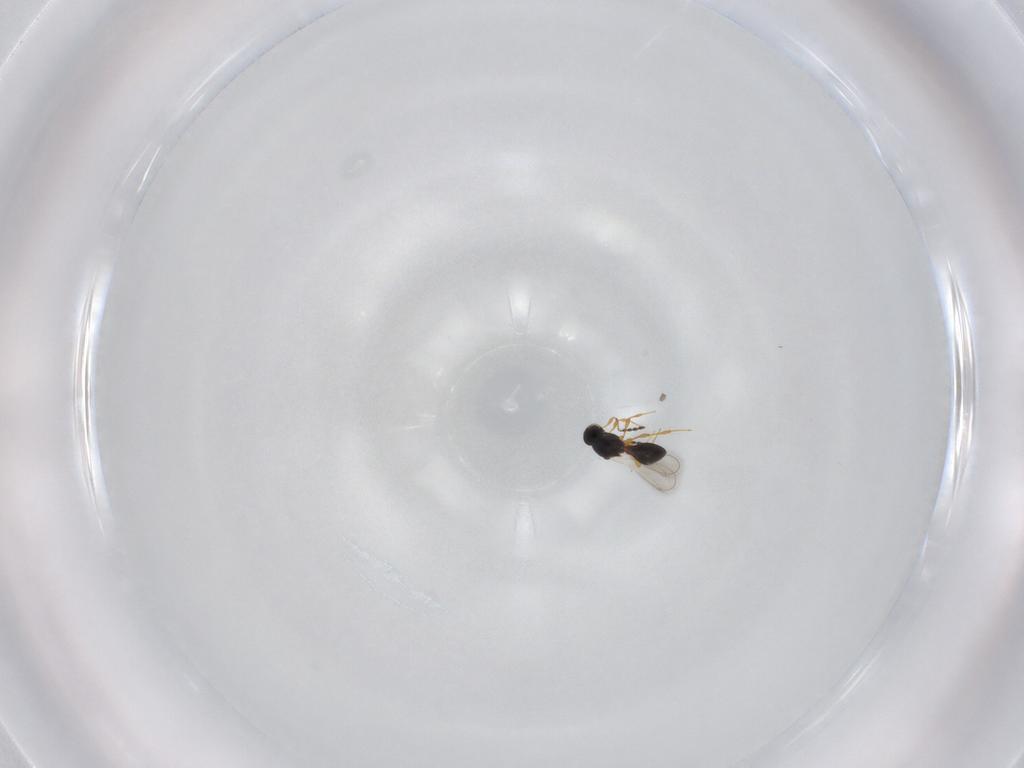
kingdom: Animalia
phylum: Arthropoda
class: Insecta
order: Hymenoptera
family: Platygastridae
